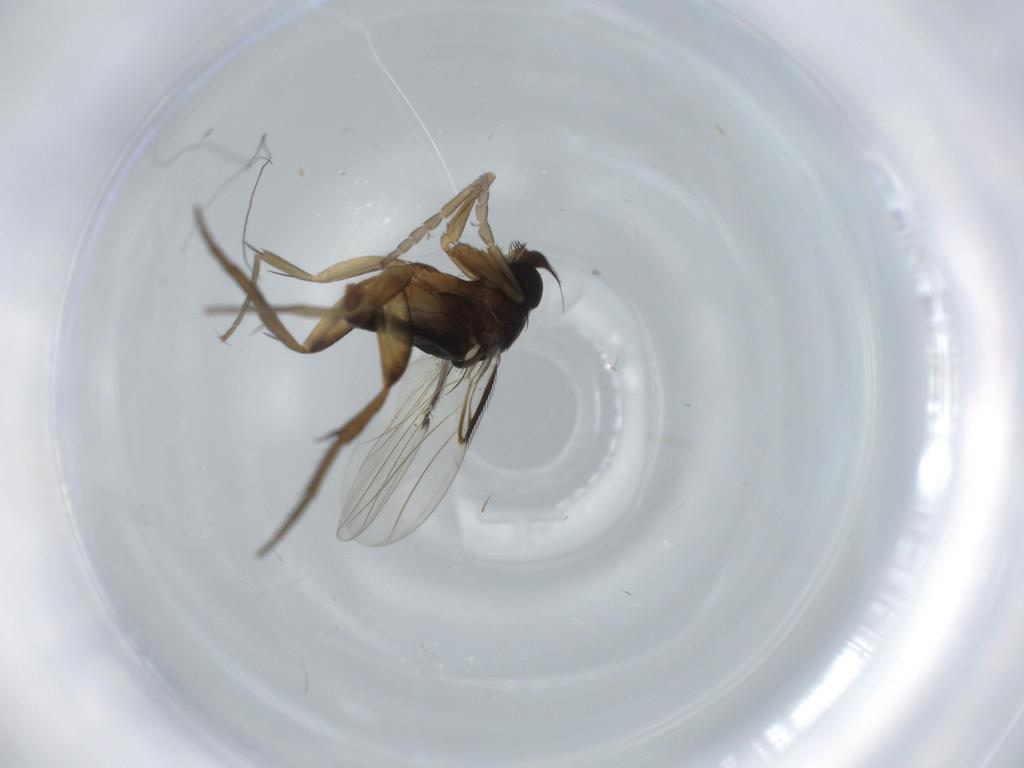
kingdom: Animalia
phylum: Arthropoda
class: Insecta
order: Diptera
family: Phoridae
